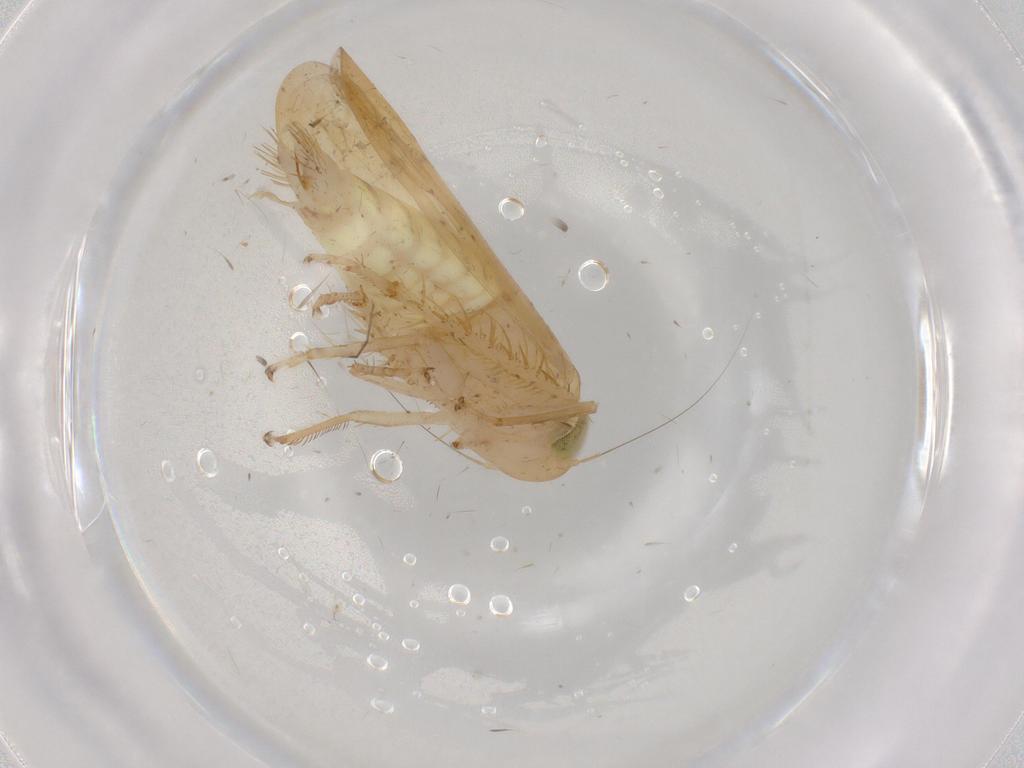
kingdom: Animalia
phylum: Arthropoda
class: Insecta
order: Hemiptera
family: Cicadellidae
